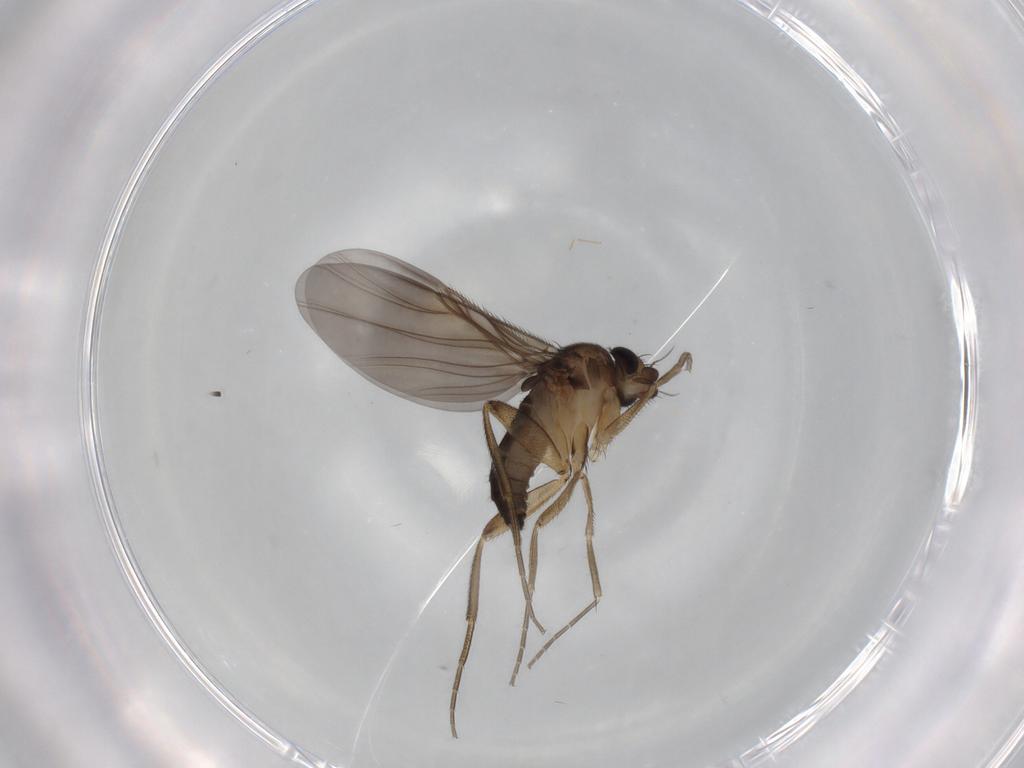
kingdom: Animalia
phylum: Arthropoda
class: Insecta
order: Diptera
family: Phoridae
